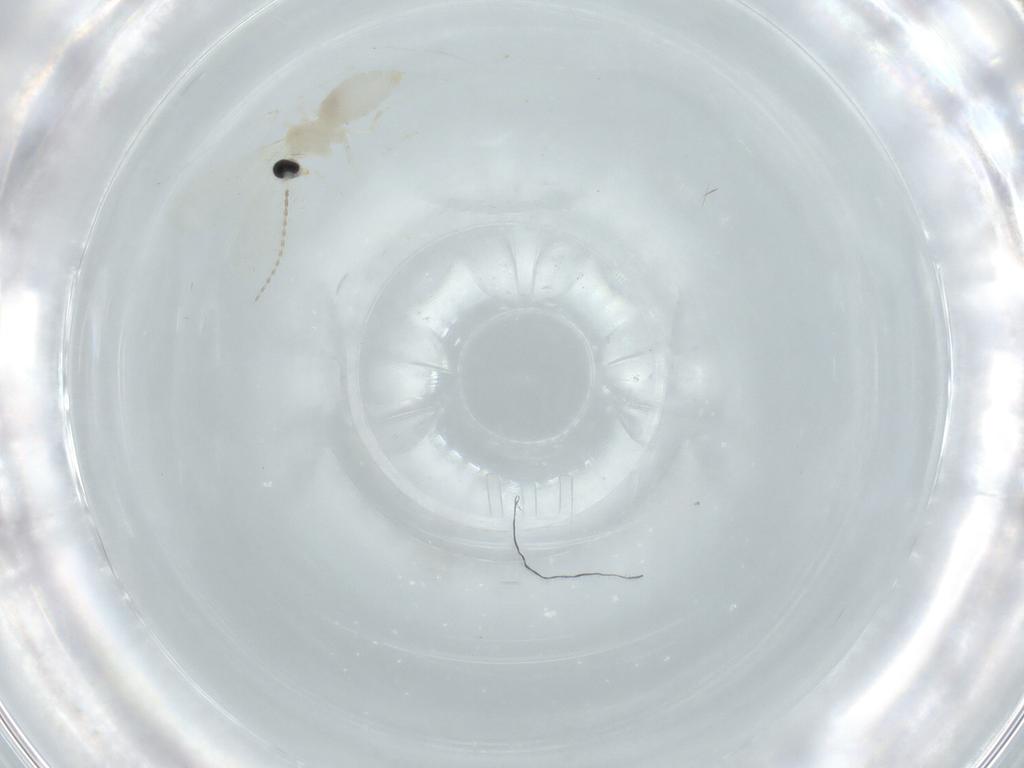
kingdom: Animalia
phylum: Arthropoda
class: Insecta
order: Diptera
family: Cecidomyiidae
